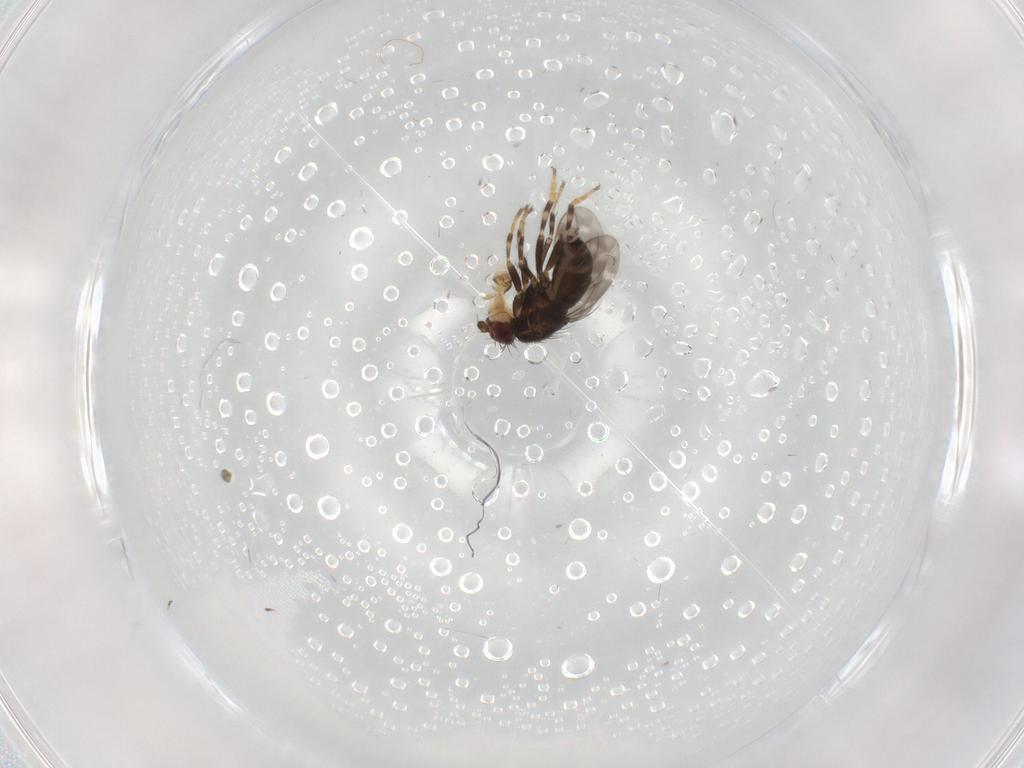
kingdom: Animalia
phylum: Arthropoda
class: Insecta
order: Diptera
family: Sphaeroceridae
